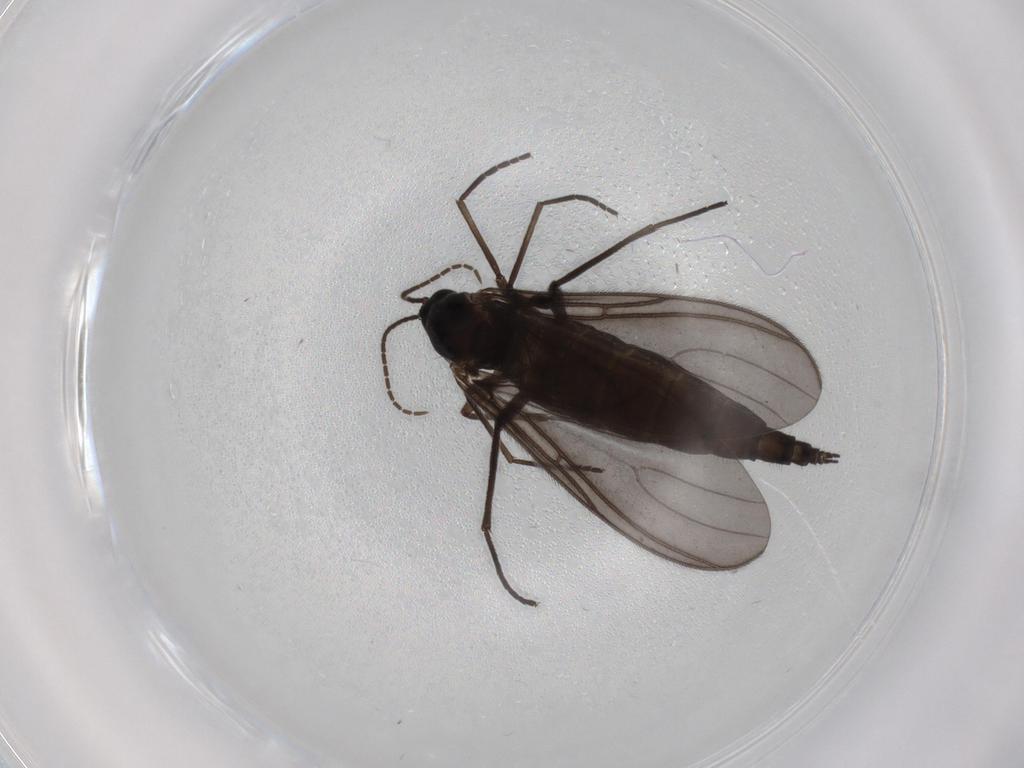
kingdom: Animalia
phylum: Arthropoda
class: Insecta
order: Diptera
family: Sciaridae
